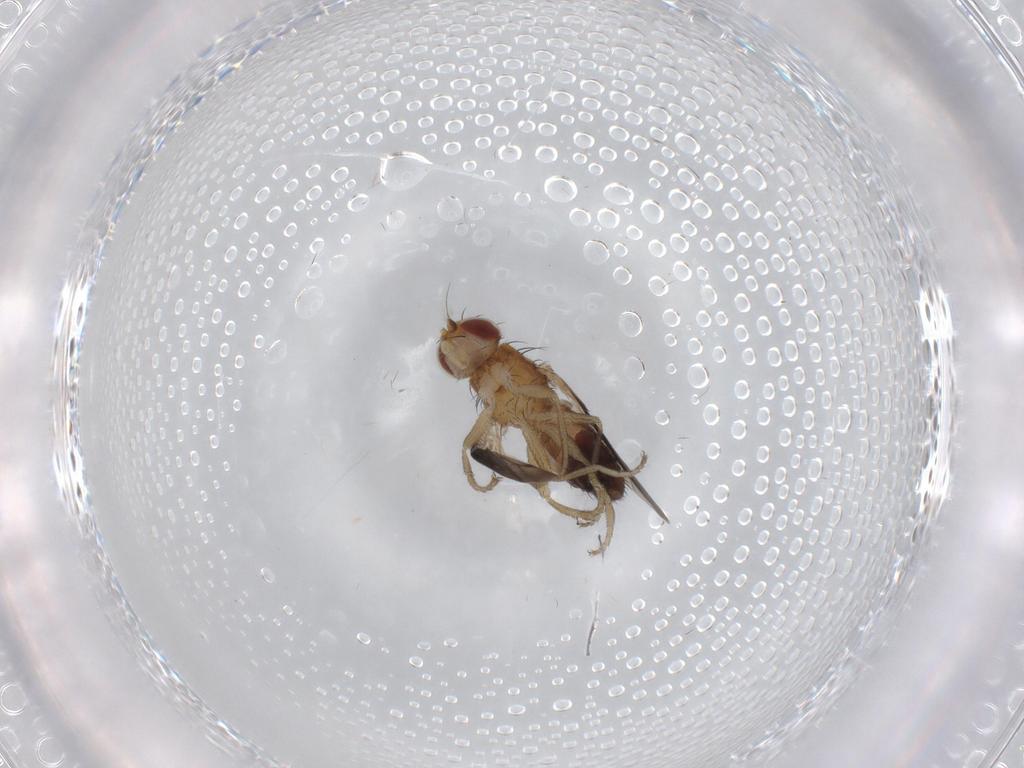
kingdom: Animalia
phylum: Arthropoda
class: Insecta
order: Diptera
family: Heleomyzidae
